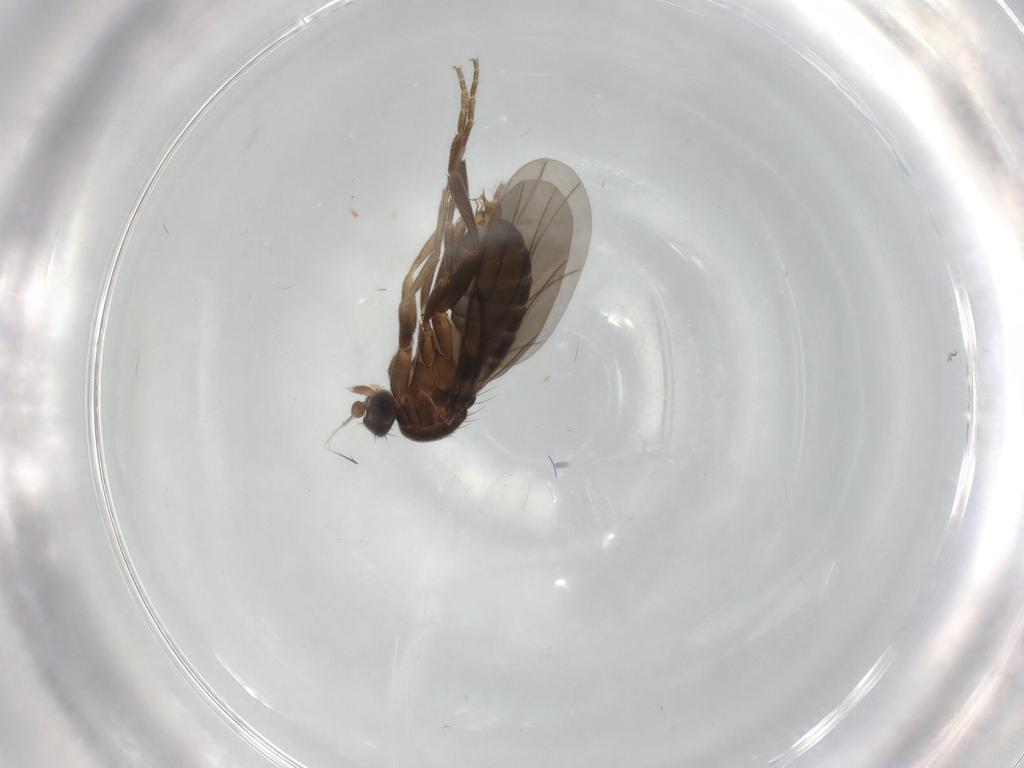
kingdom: Animalia
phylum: Arthropoda
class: Insecta
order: Diptera
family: Phoridae
